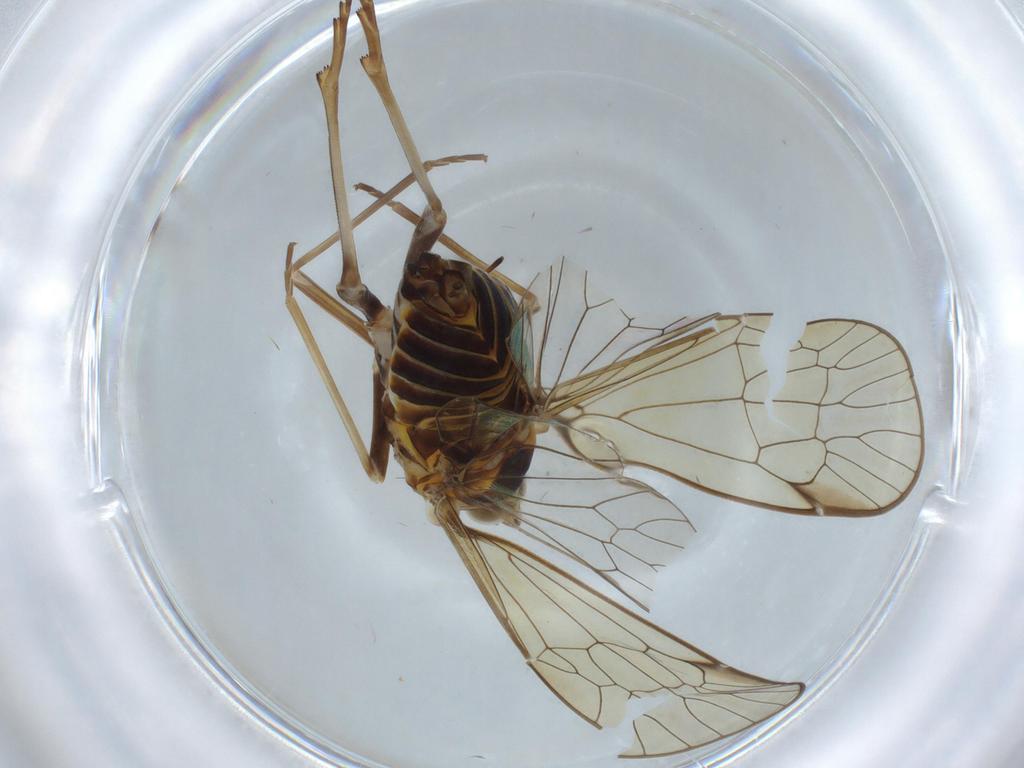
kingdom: Animalia
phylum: Arthropoda
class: Insecta
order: Hemiptera
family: Kinnaridae
